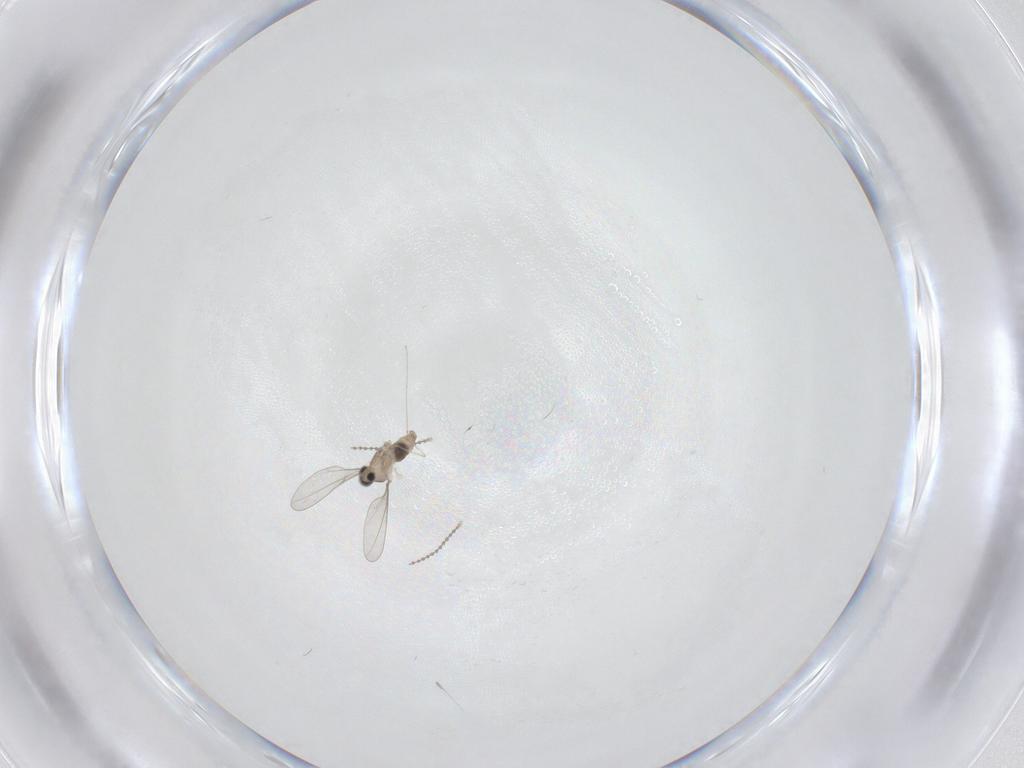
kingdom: Animalia
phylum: Arthropoda
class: Insecta
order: Diptera
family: Cecidomyiidae
